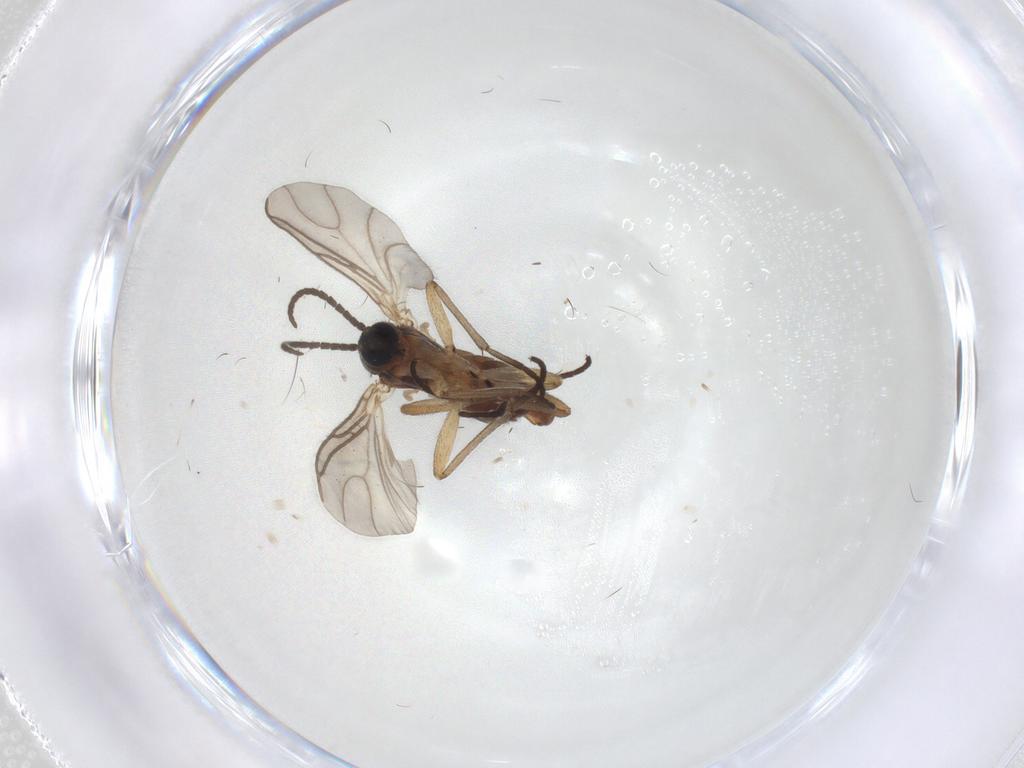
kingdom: Animalia
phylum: Arthropoda
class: Insecta
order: Diptera
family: Sciaridae
